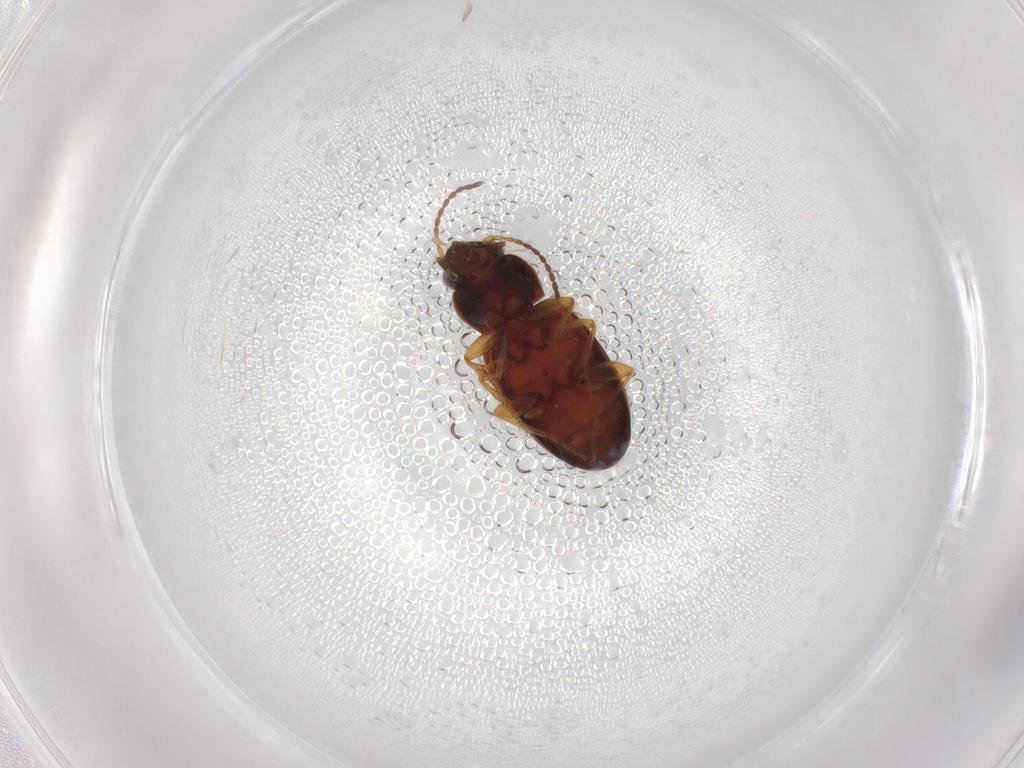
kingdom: Animalia
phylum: Arthropoda
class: Insecta
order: Coleoptera
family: Carabidae
